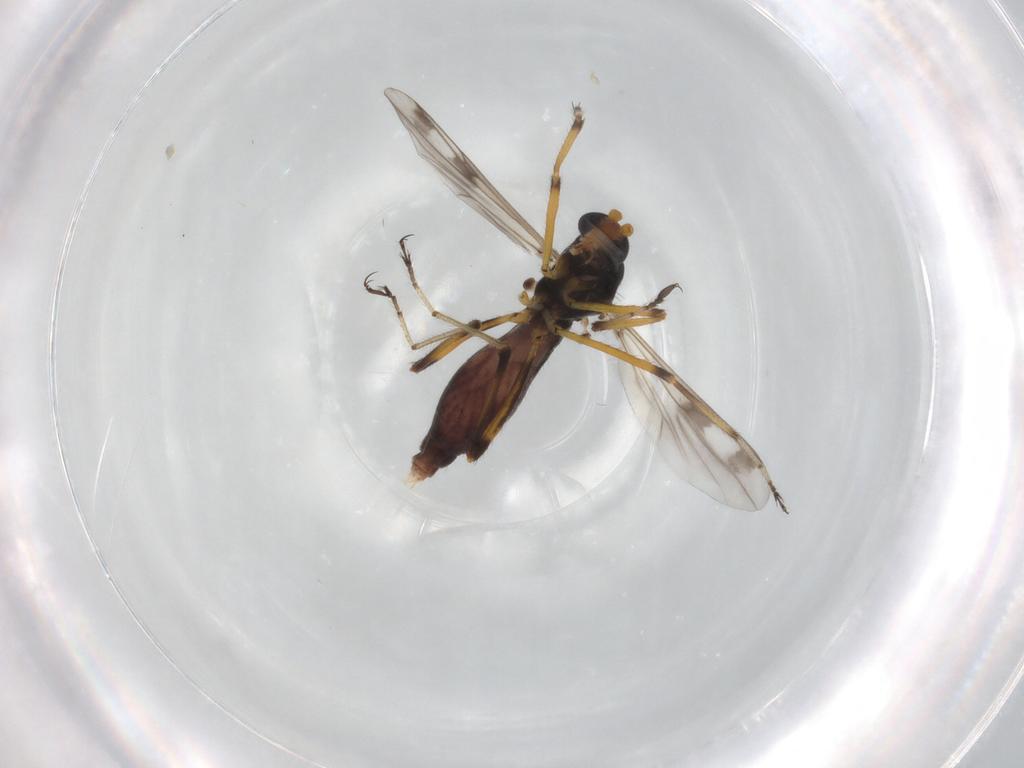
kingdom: Animalia
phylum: Arthropoda
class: Insecta
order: Diptera
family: Ceratopogonidae
